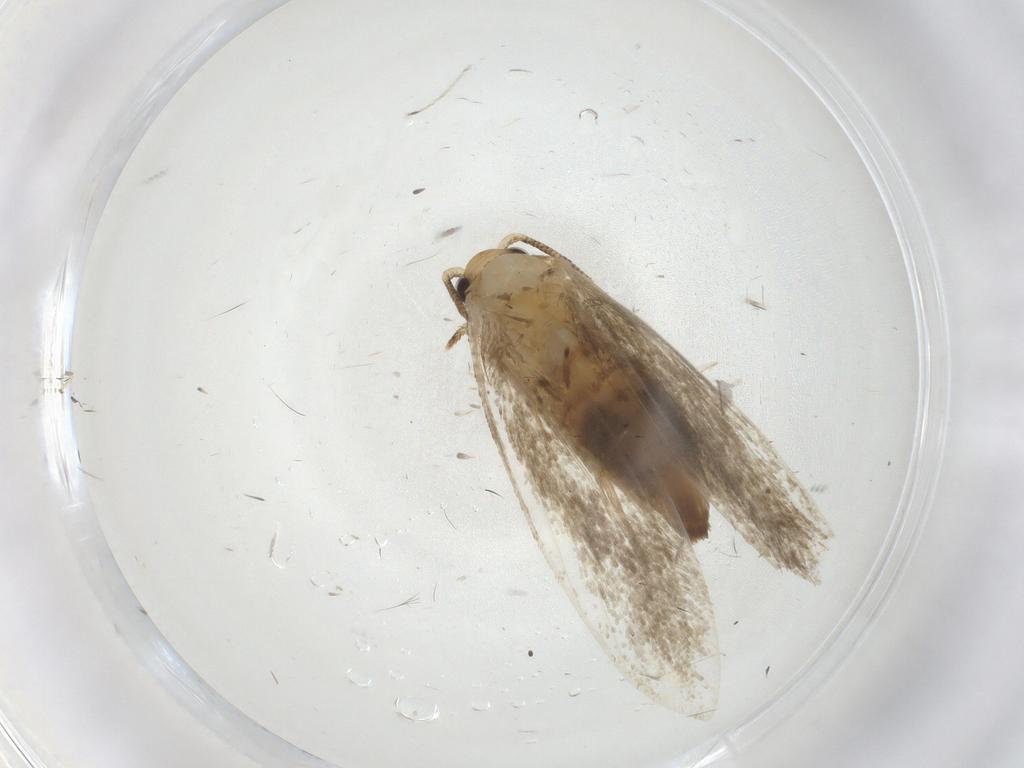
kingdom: Animalia
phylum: Arthropoda
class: Insecta
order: Lepidoptera
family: Tineidae
